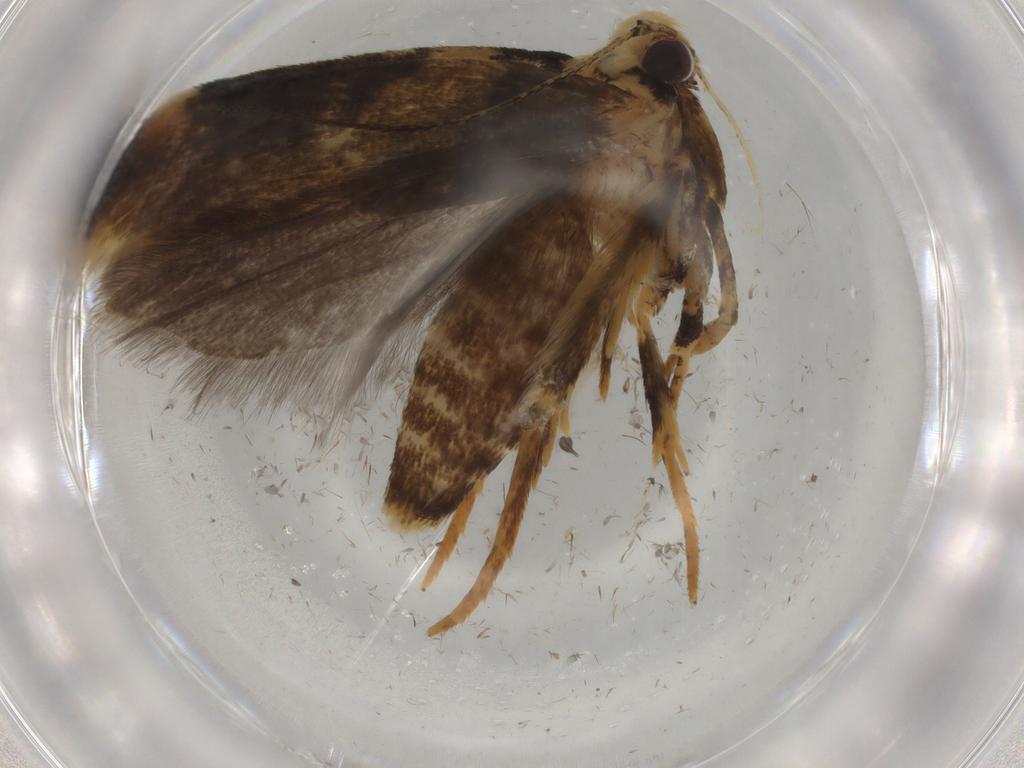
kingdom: Animalia
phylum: Arthropoda
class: Insecta
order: Lepidoptera
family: Gelechiidae
